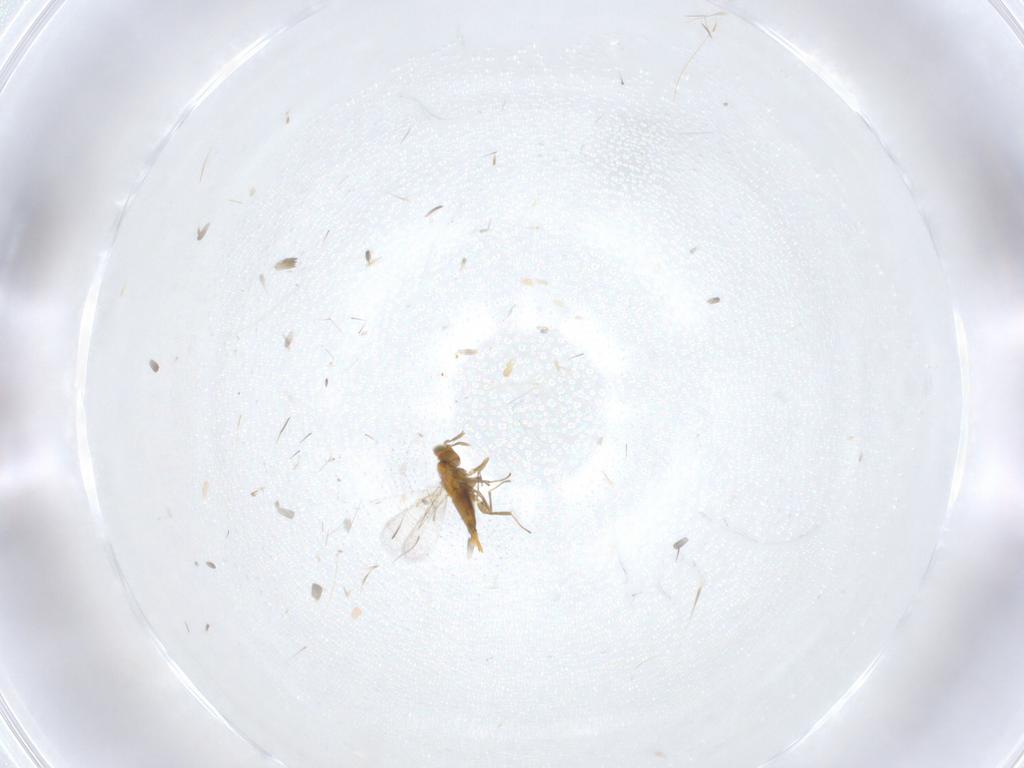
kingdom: Animalia
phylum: Arthropoda
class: Insecta
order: Hymenoptera
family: Aphelinidae
